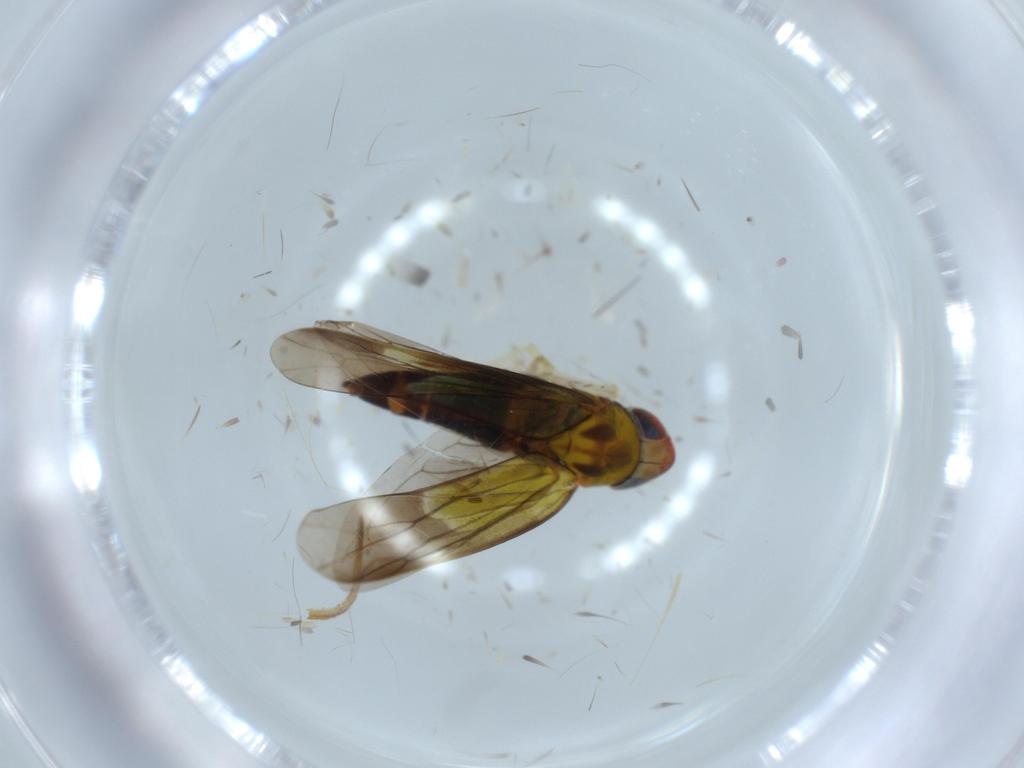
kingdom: Animalia
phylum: Arthropoda
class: Insecta
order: Hemiptera
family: Cicadellidae
